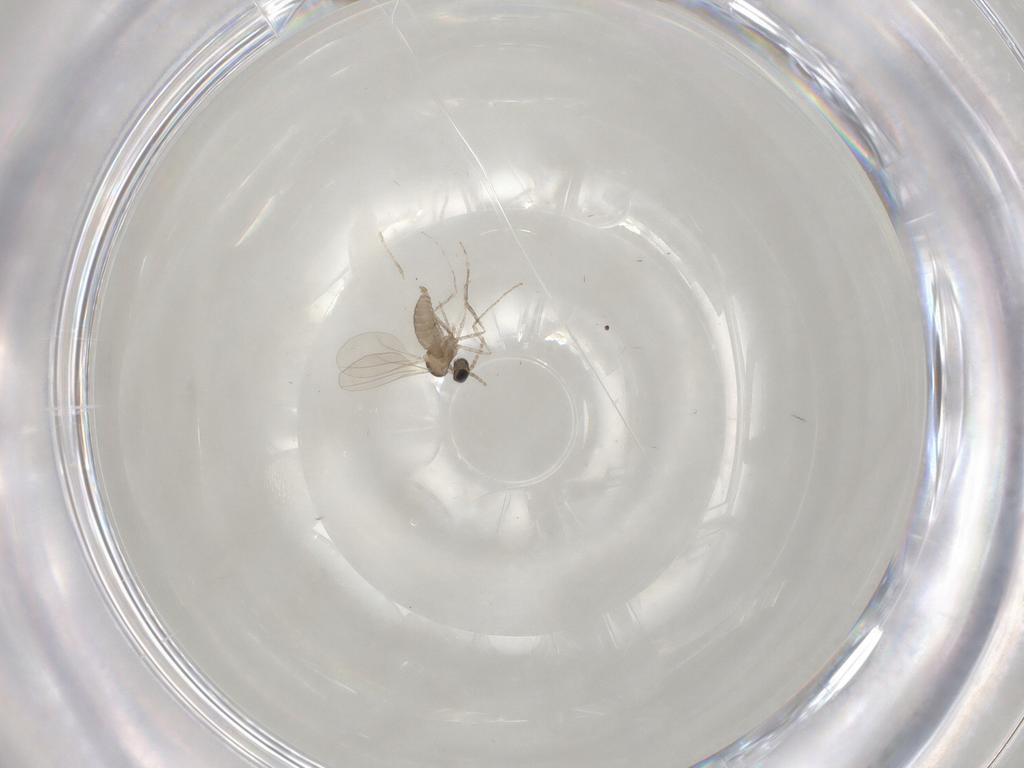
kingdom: Animalia
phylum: Arthropoda
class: Insecta
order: Diptera
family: Cecidomyiidae
